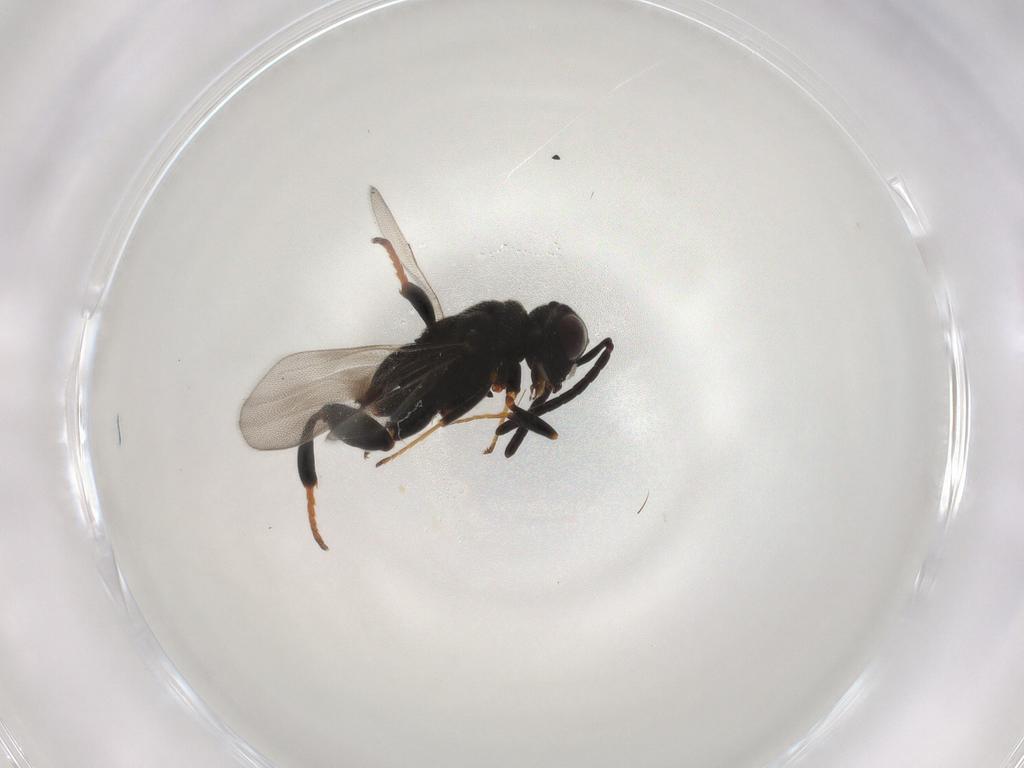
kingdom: Animalia
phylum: Arthropoda
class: Insecta
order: Hymenoptera
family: Chalcididae
